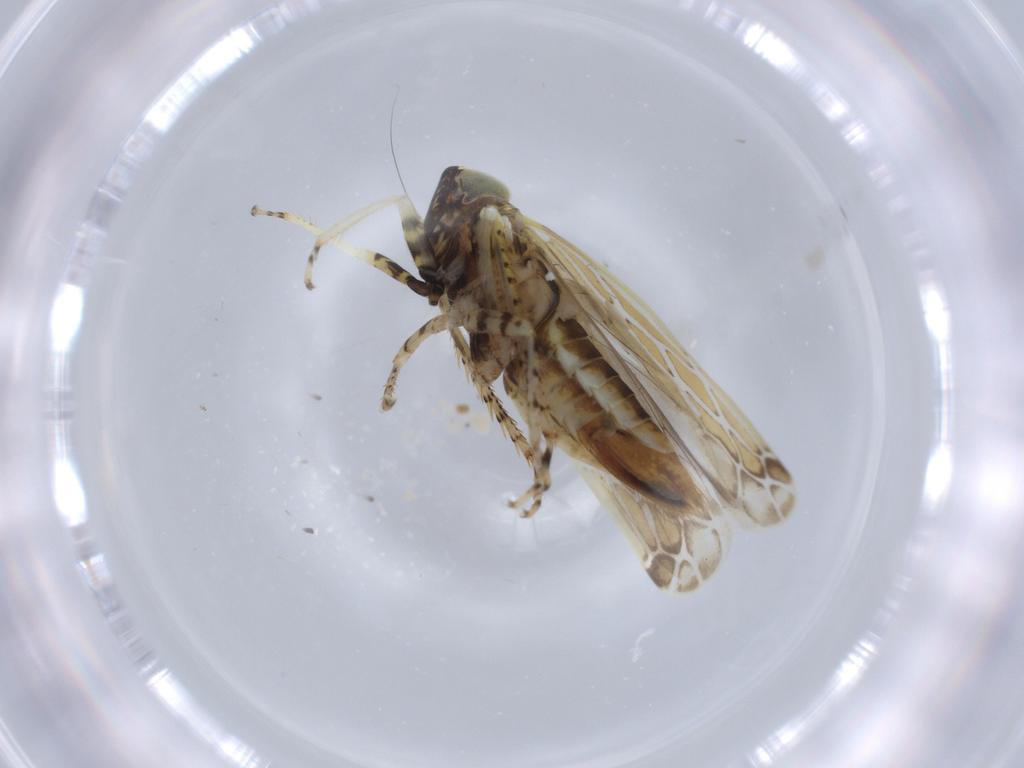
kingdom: Animalia
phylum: Arthropoda
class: Insecta
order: Hemiptera
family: Cicadellidae
